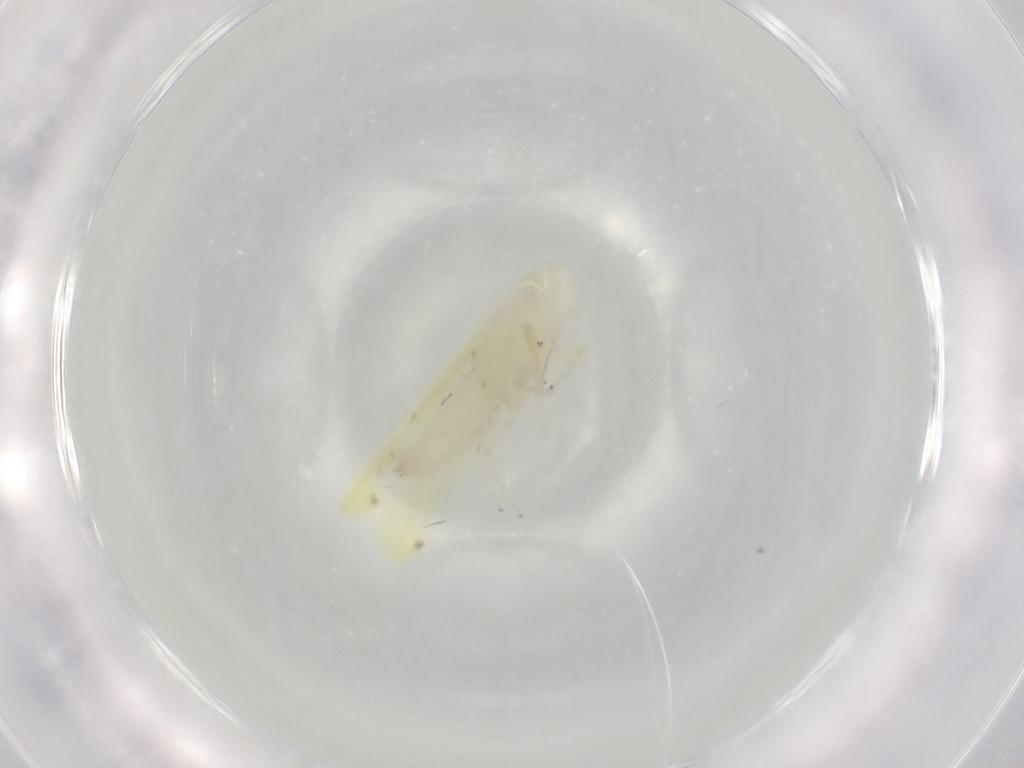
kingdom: Animalia
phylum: Arthropoda
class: Insecta
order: Hemiptera
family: Cicadellidae
